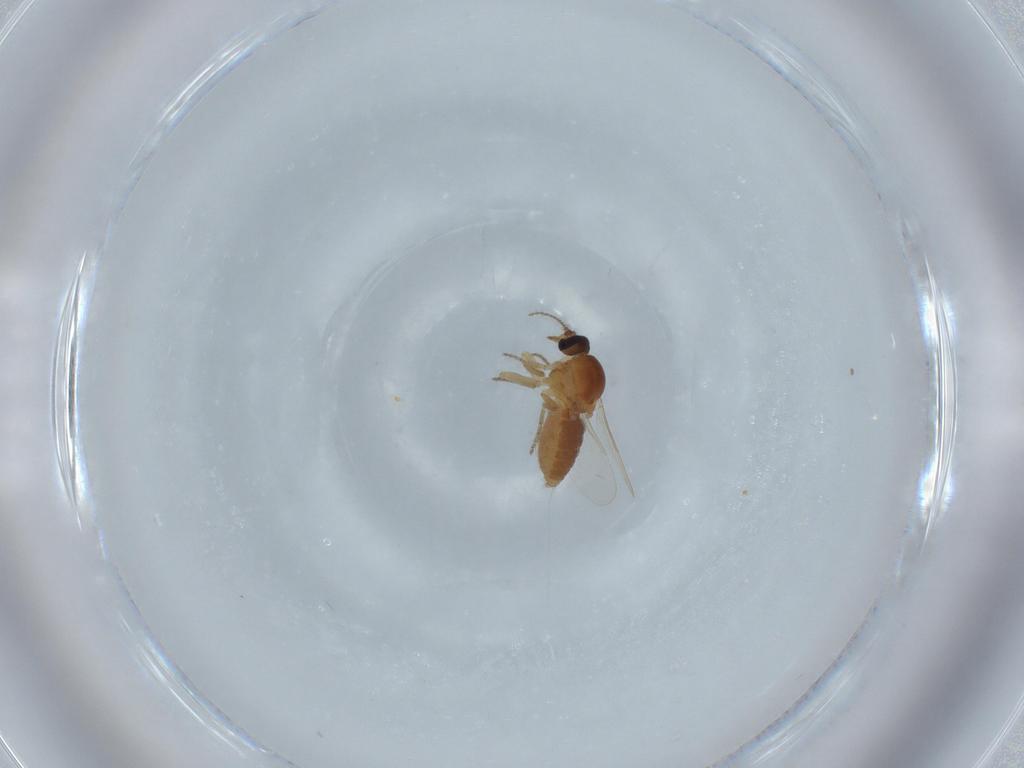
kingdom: Animalia
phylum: Arthropoda
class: Insecta
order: Diptera
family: Ceratopogonidae
